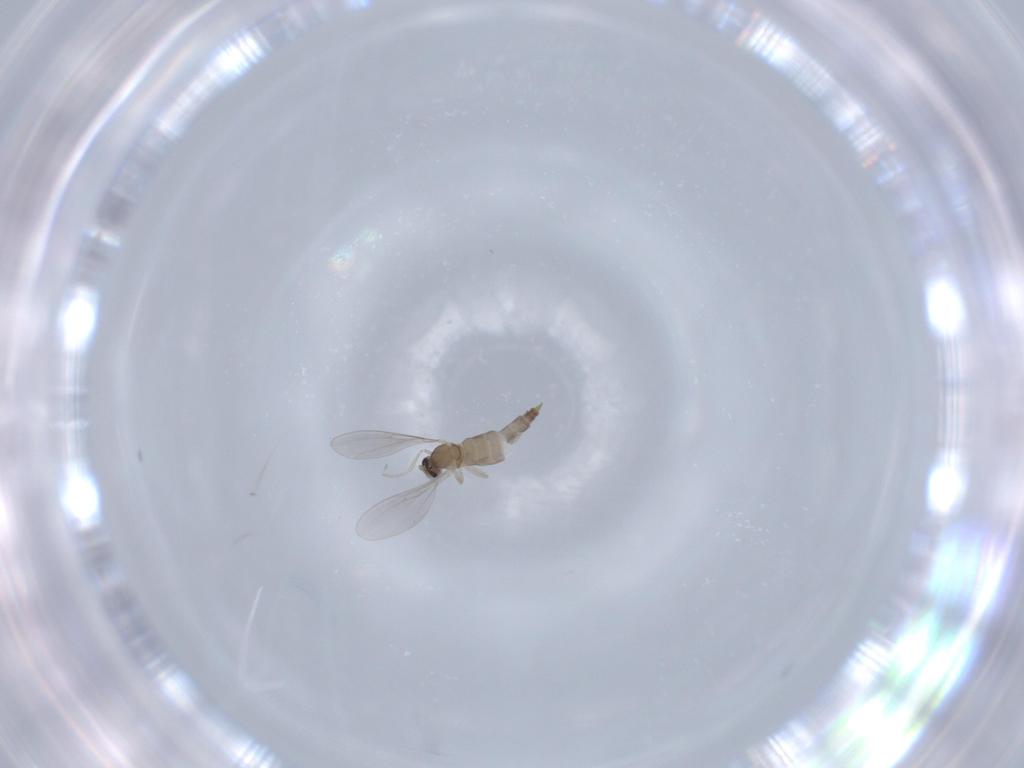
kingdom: Animalia
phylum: Arthropoda
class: Insecta
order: Diptera
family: Cecidomyiidae
